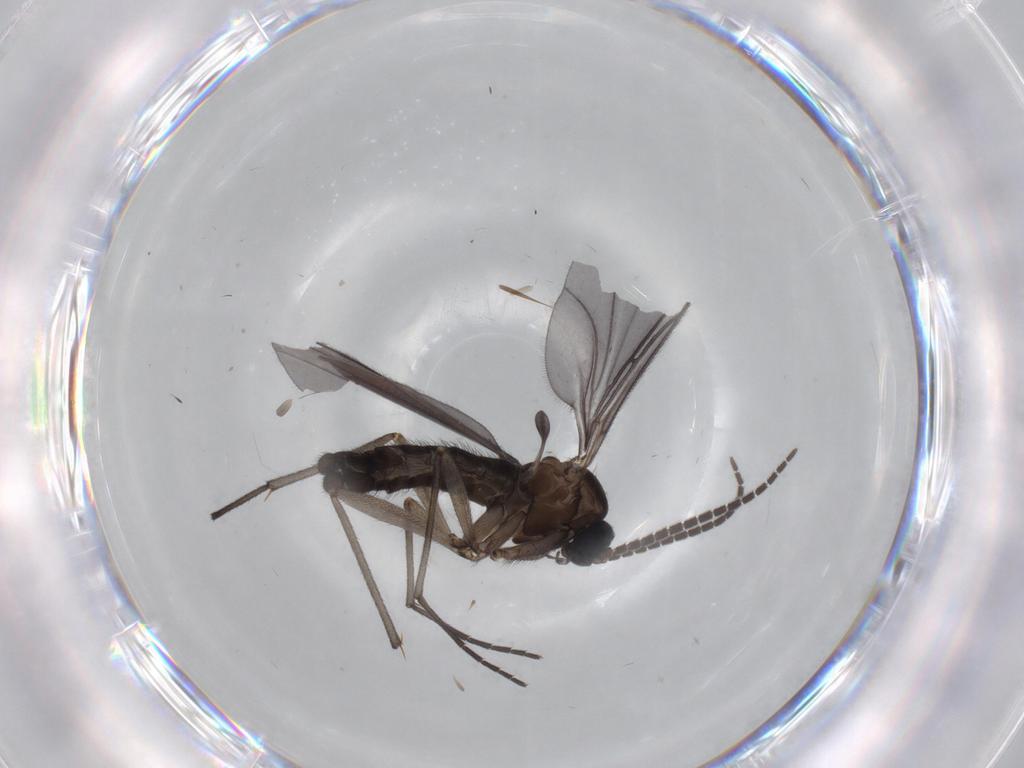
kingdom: Animalia
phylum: Arthropoda
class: Insecta
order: Diptera
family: Sciaridae
